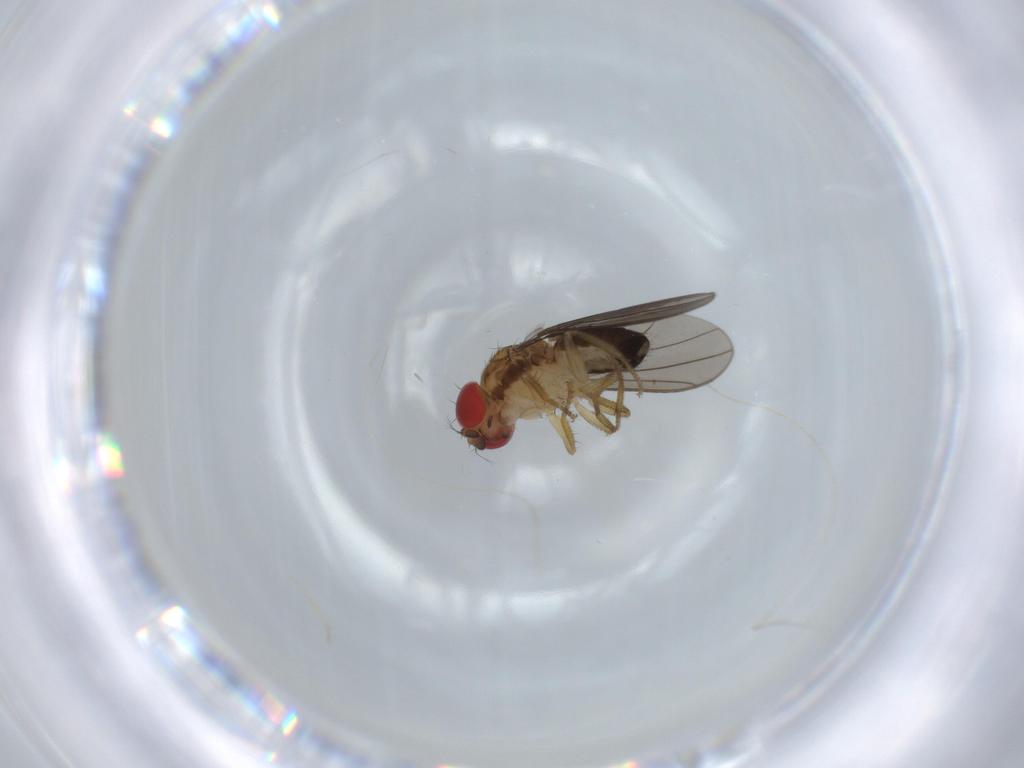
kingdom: Animalia
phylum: Arthropoda
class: Insecta
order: Diptera
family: Drosophilidae
